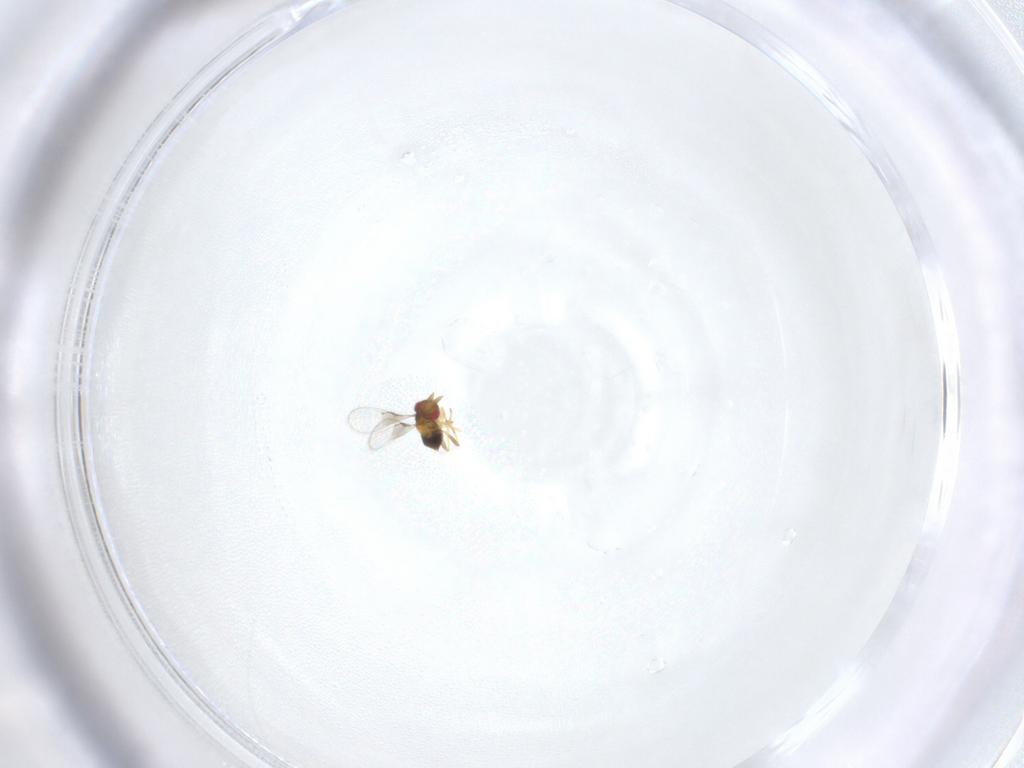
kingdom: Animalia
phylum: Arthropoda
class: Insecta
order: Hymenoptera
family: Trichogrammatidae
